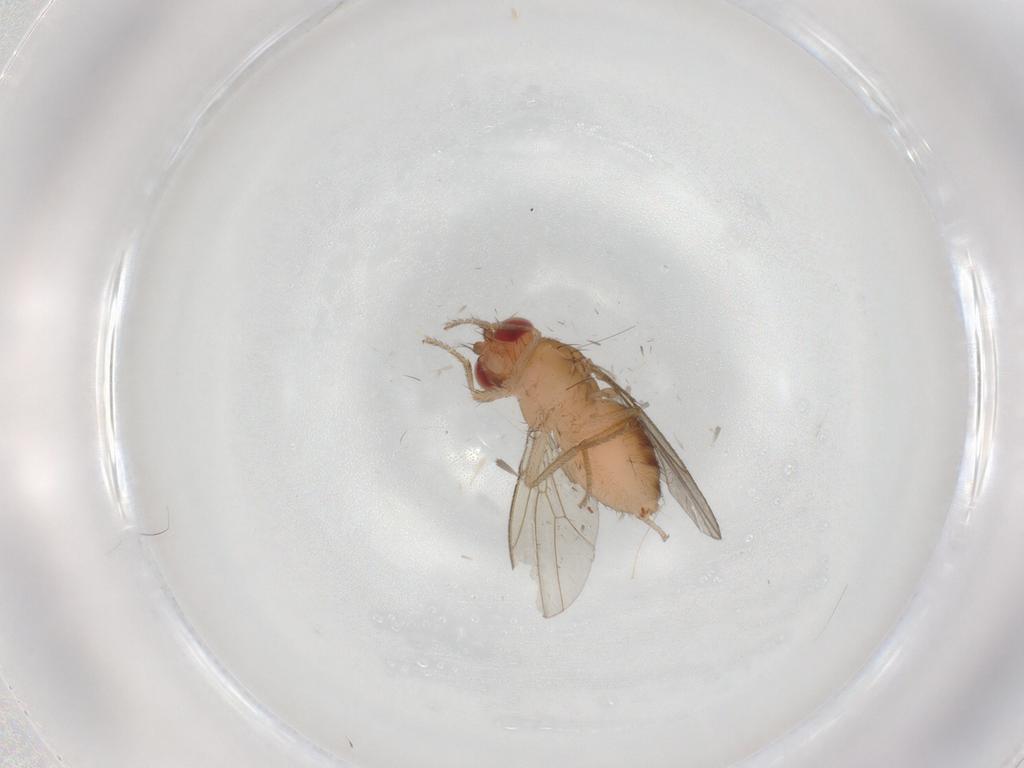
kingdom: Animalia
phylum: Arthropoda
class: Insecta
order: Diptera
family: Drosophilidae
